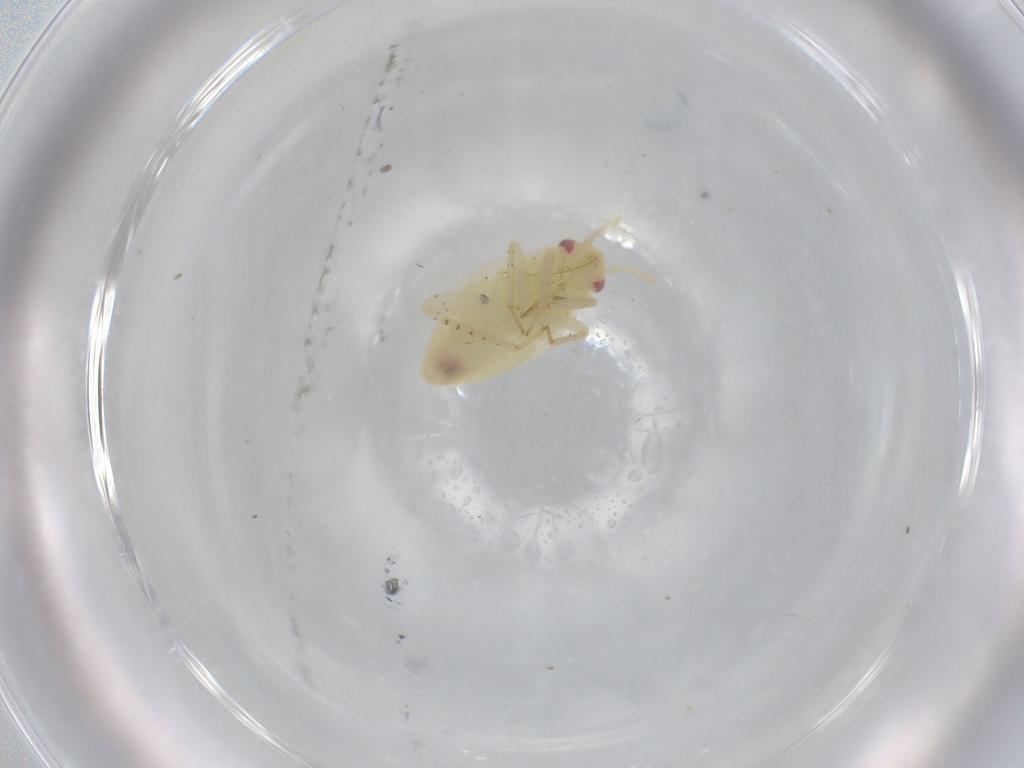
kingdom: Animalia
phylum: Arthropoda
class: Insecta
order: Hemiptera
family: Miridae
